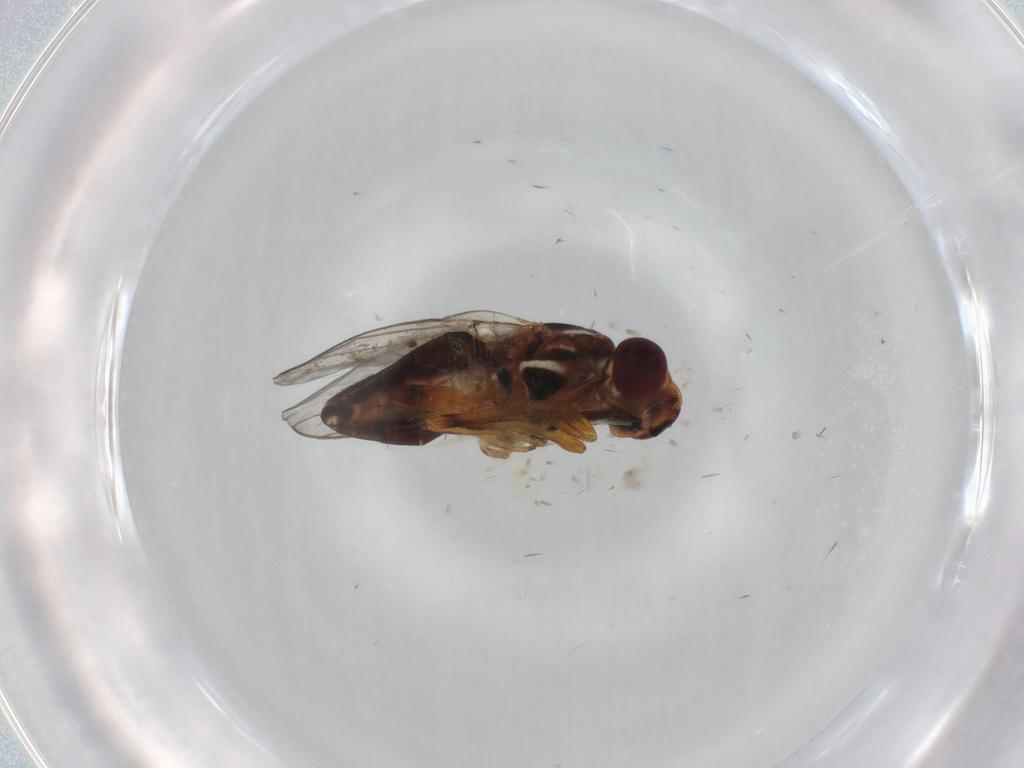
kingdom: Animalia
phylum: Arthropoda
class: Insecta
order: Diptera
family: Chloropidae
